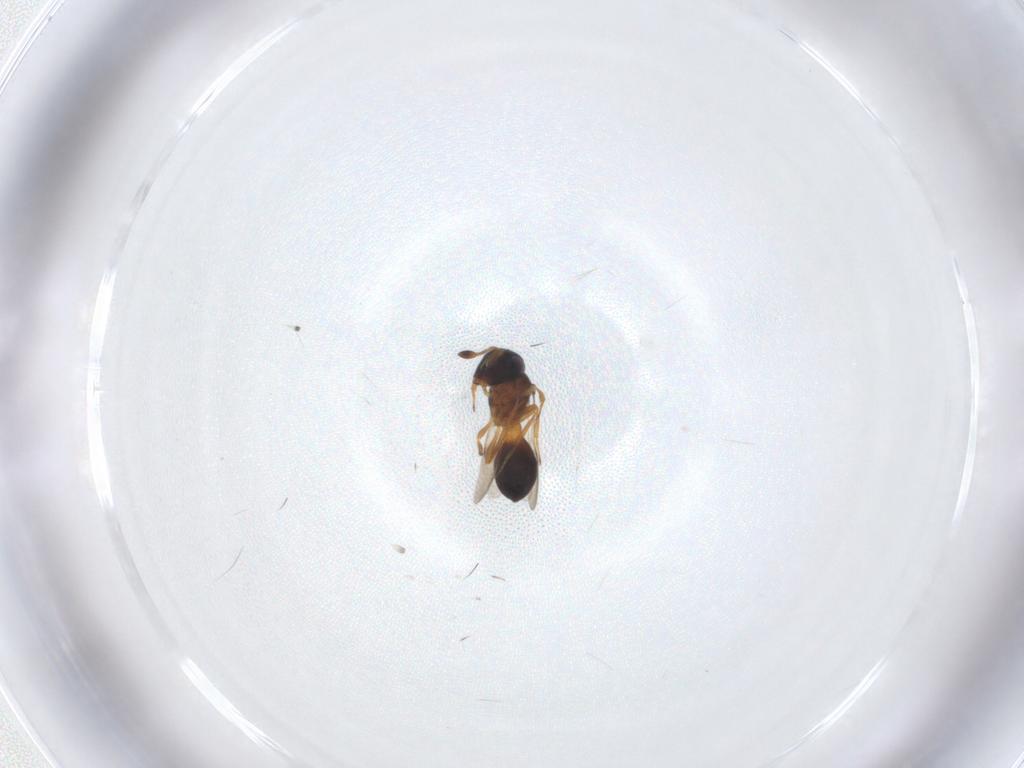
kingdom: Animalia
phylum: Arthropoda
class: Insecta
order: Hymenoptera
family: Scelionidae
